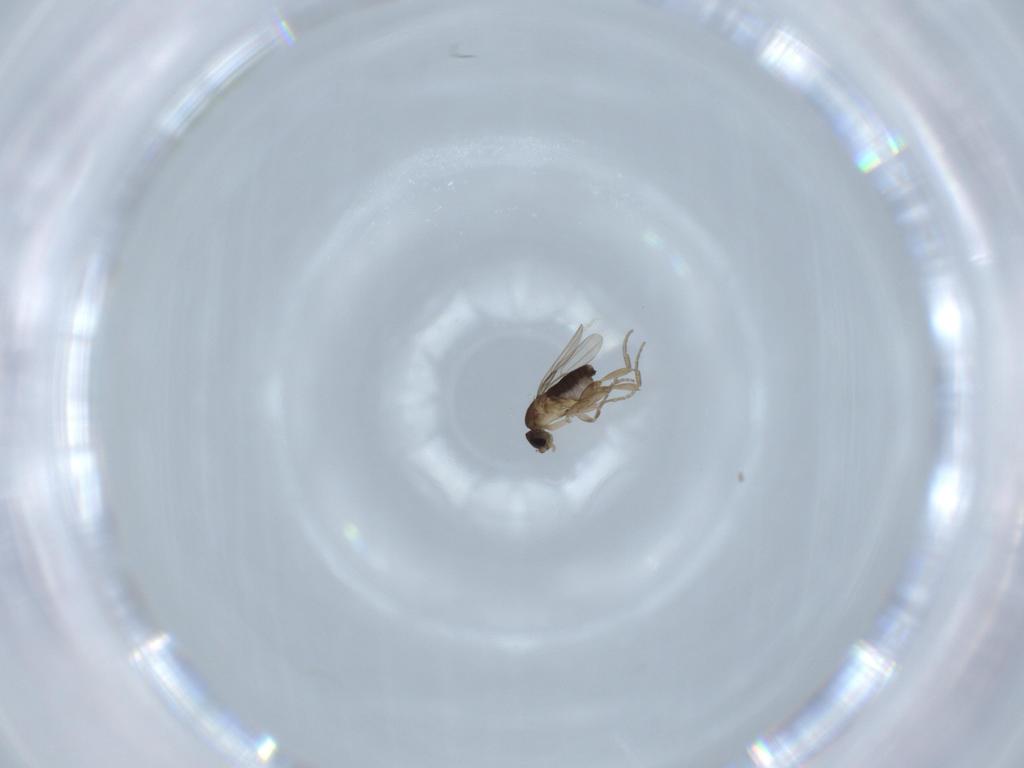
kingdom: Animalia
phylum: Arthropoda
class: Insecta
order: Diptera
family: Phoridae
